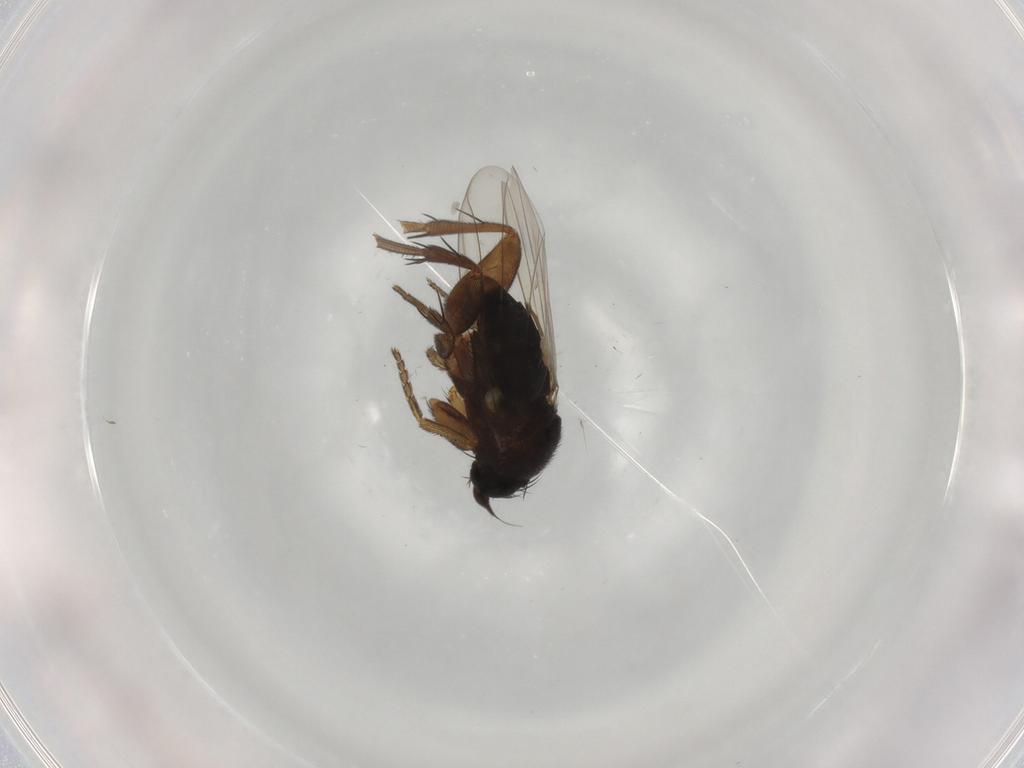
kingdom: Animalia
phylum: Arthropoda
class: Insecta
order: Diptera
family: Phoridae
